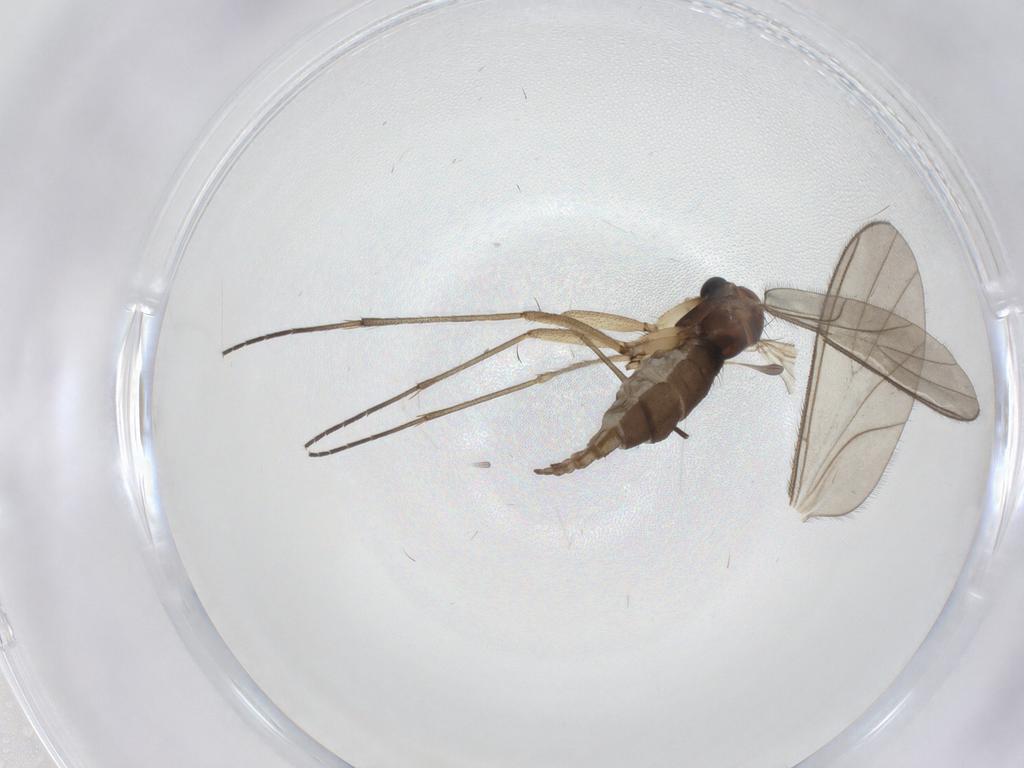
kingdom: Animalia
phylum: Arthropoda
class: Insecta
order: Diptera
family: Sciaridae
